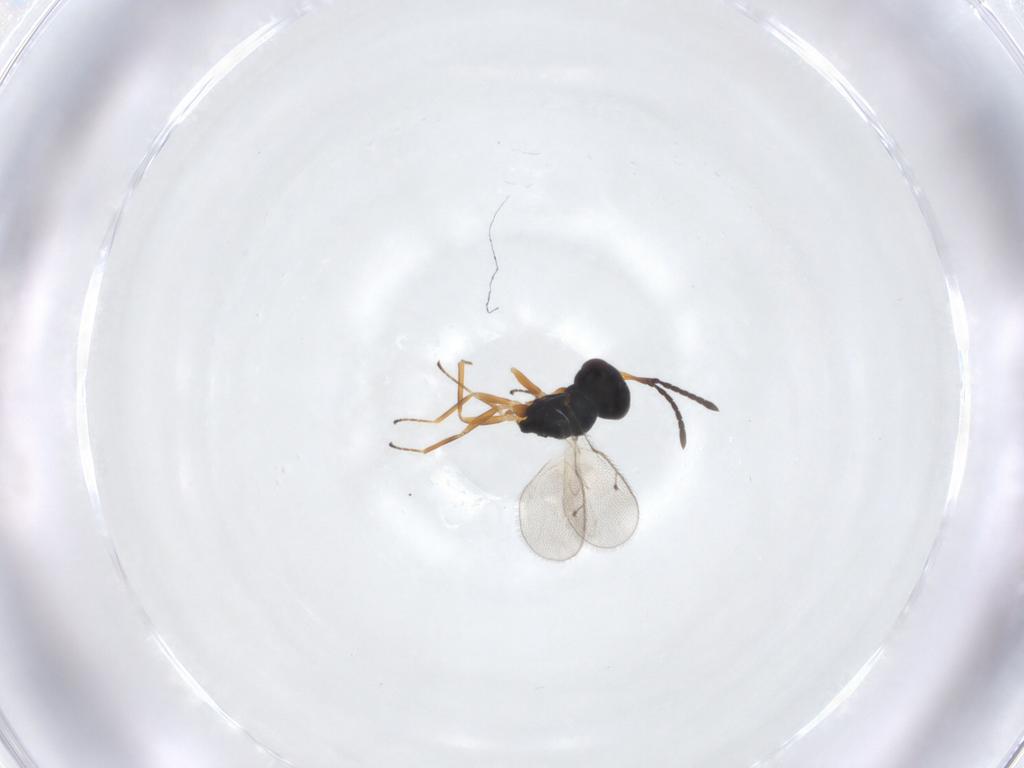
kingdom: Animalia
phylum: Arthropoda
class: Insecta
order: Hymenoptera
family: Pteromalidae
